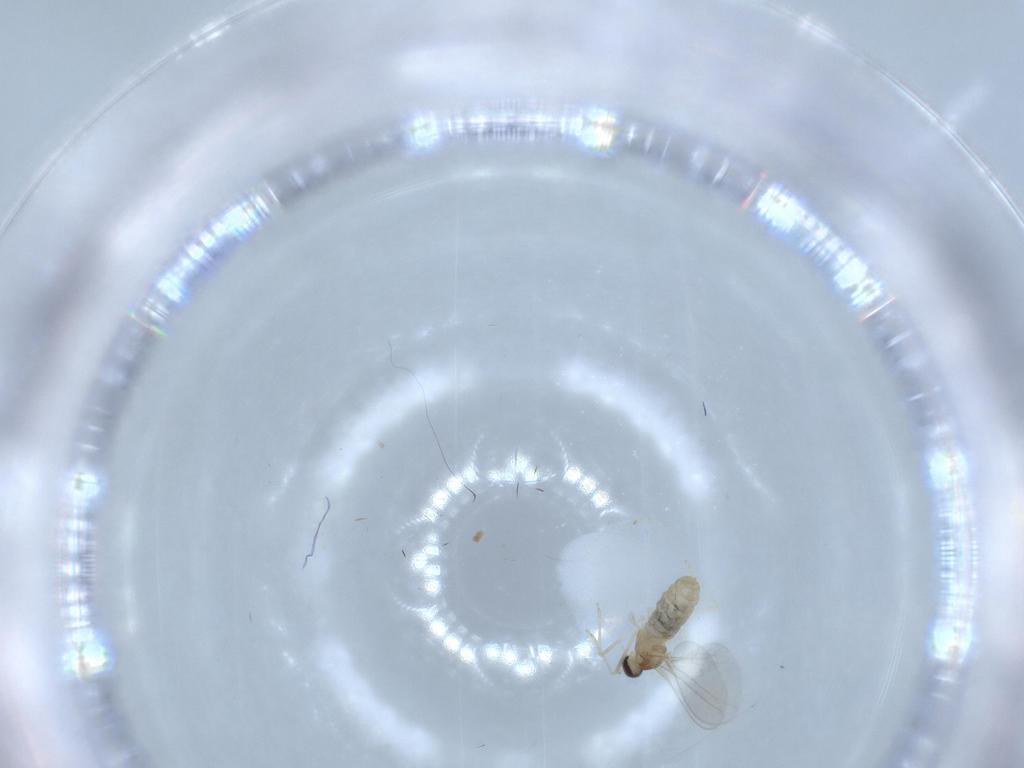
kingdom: Animalia
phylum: Arthropoda
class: Insecta
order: Diptera
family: Cecidomyiidae
